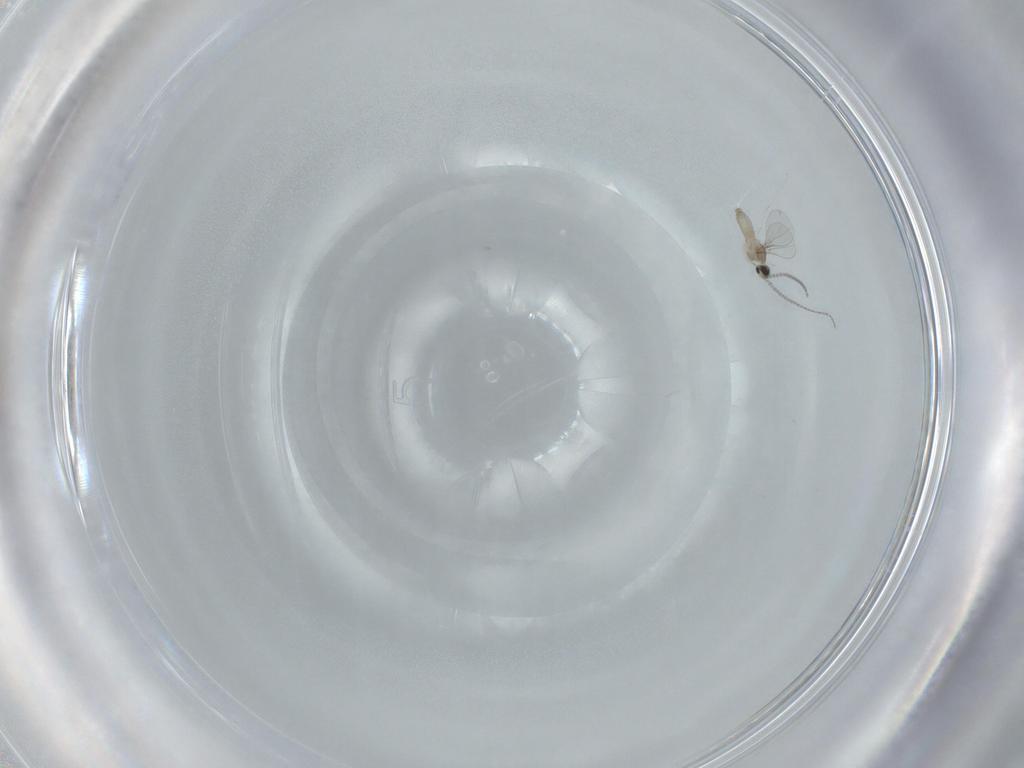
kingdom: Animalia
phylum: Arthropoda
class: Insecta
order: Diptera
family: Cecidomyiidae
